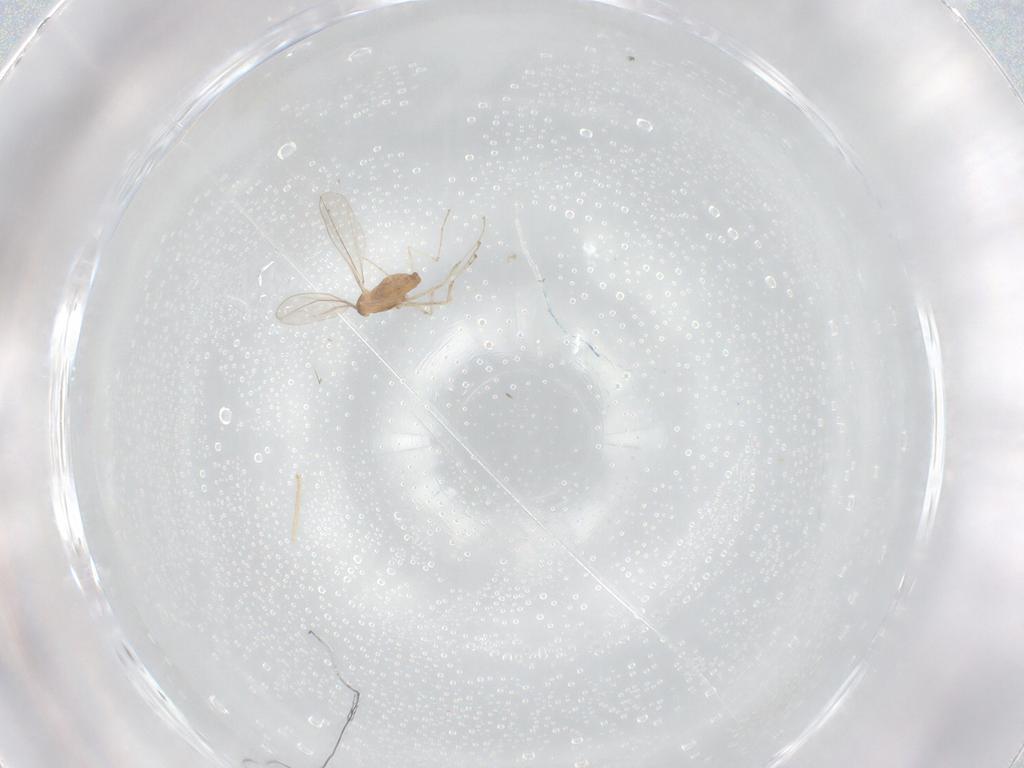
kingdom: Animalia
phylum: Arthropoda
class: Insecta
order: Diptera
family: Cecidomyiidae
